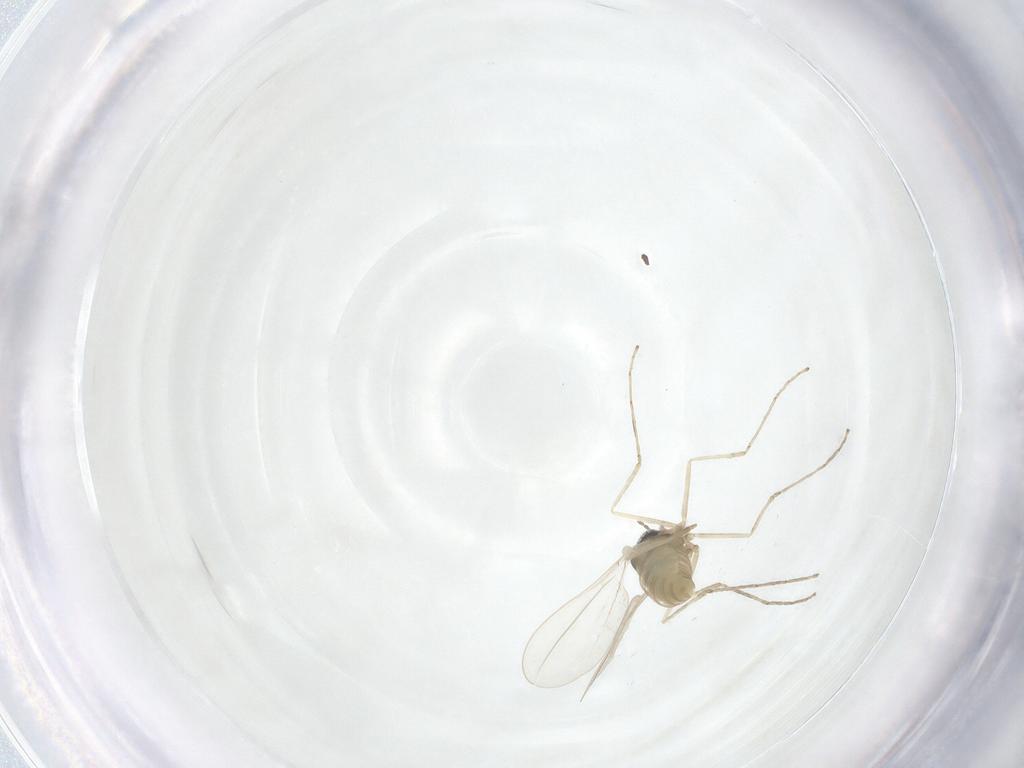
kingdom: Animalia
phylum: Arthropoda
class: Insecta
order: Diptera
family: Cecidomyiidae
